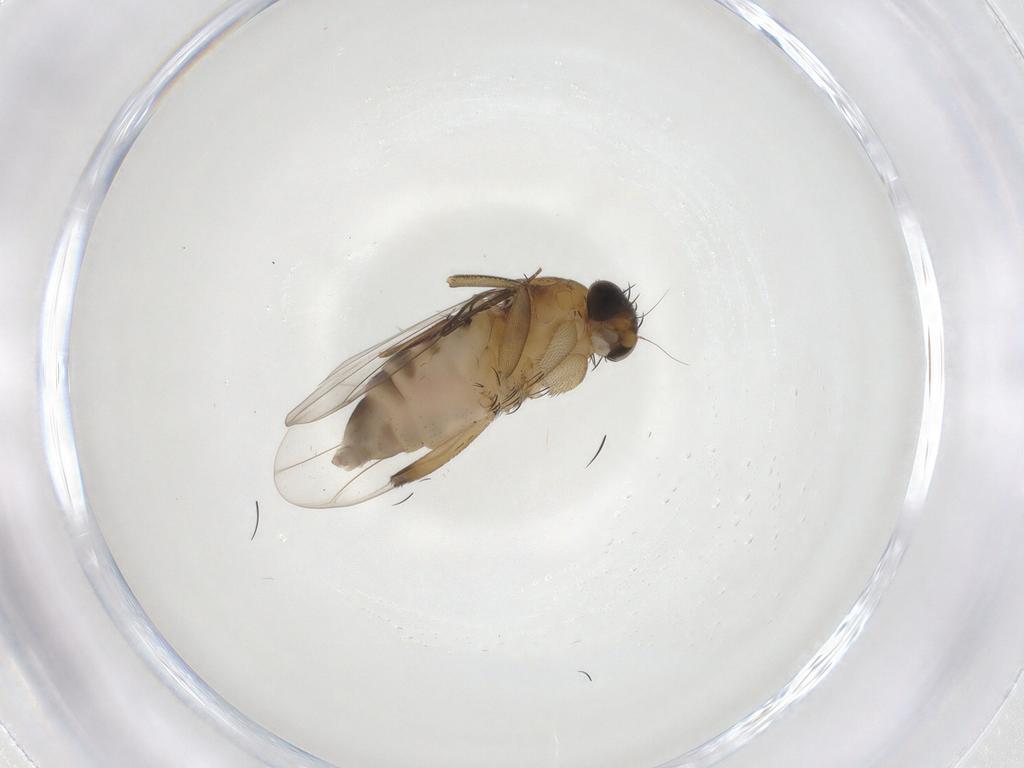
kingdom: Animalia
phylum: Arthropoda
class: Insecta
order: Diptera
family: Phoridae
